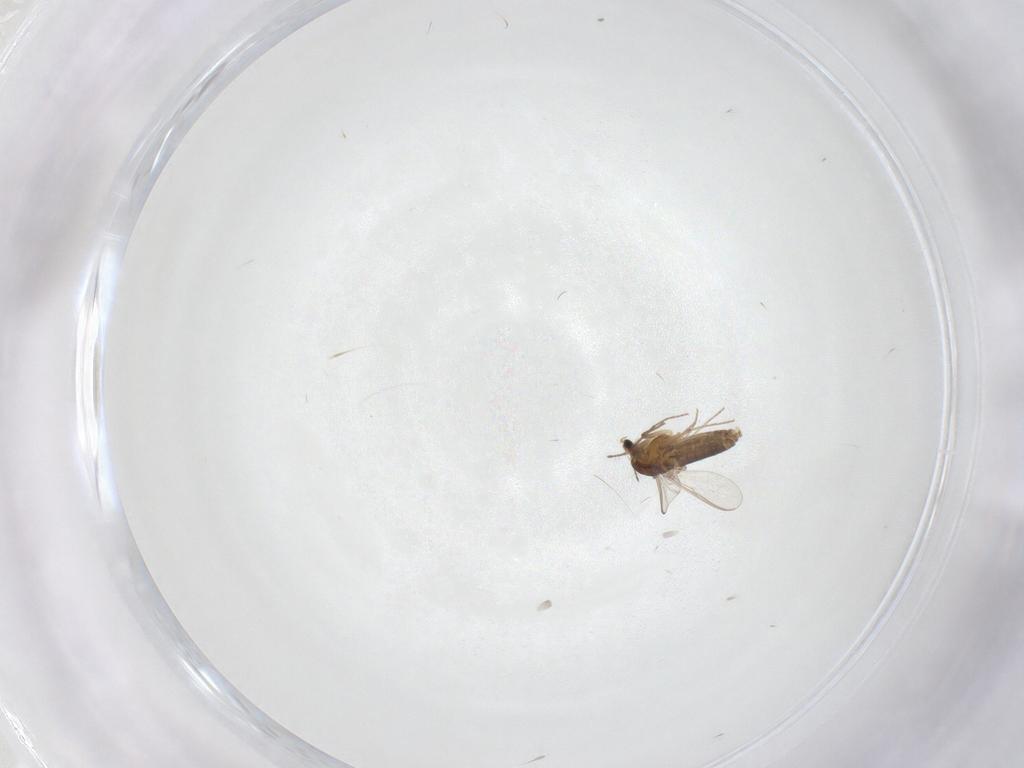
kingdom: Animalia
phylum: Arthropoda
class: Insecta
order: Diptera
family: Chironomidae
